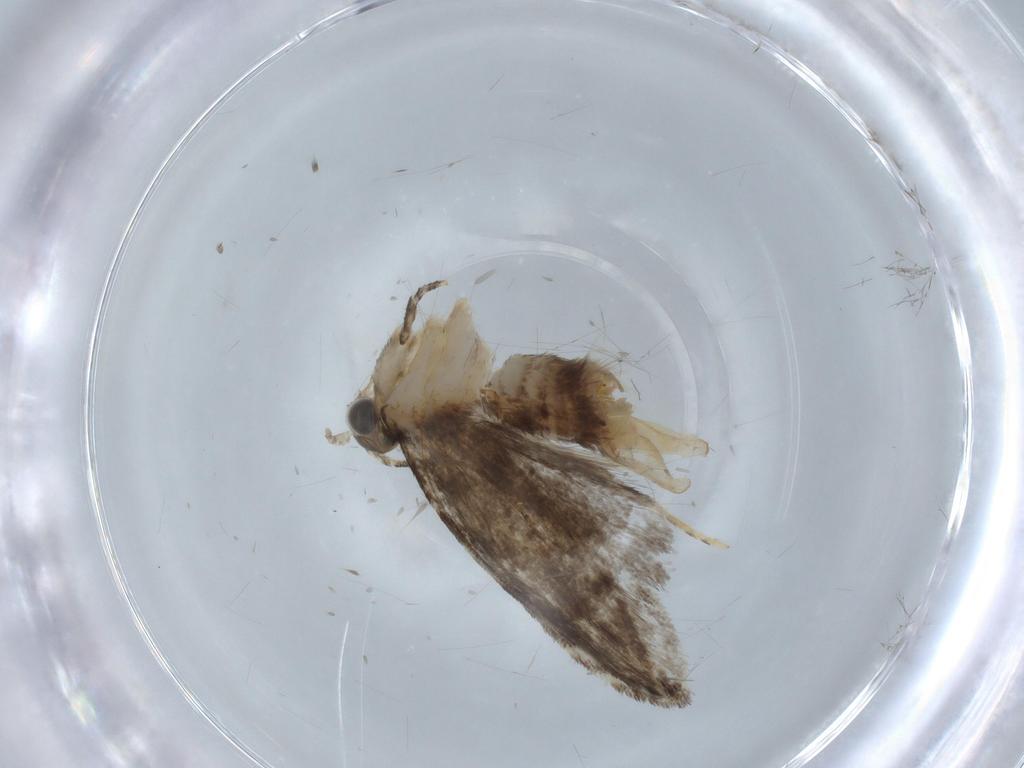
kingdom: Animalia
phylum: Arthropoda
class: Insecta
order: Lepidoptera
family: Tineidae
